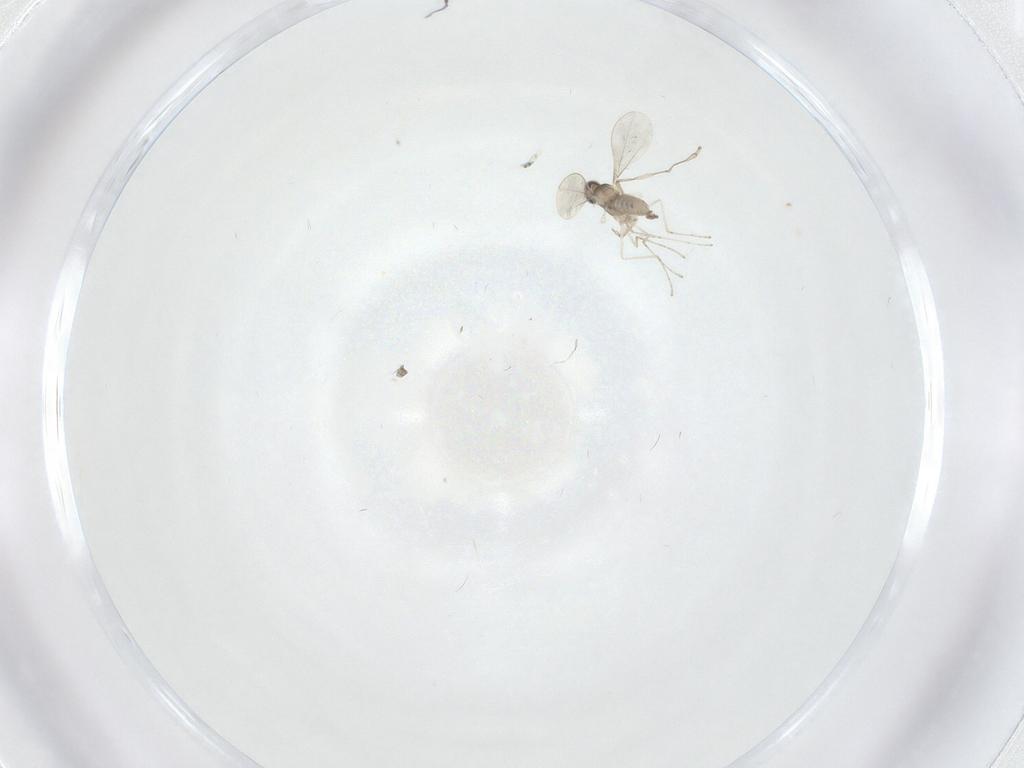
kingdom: Animalia
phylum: Arthropoda
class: Insecta
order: Diptera
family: Cecidomyiidae
